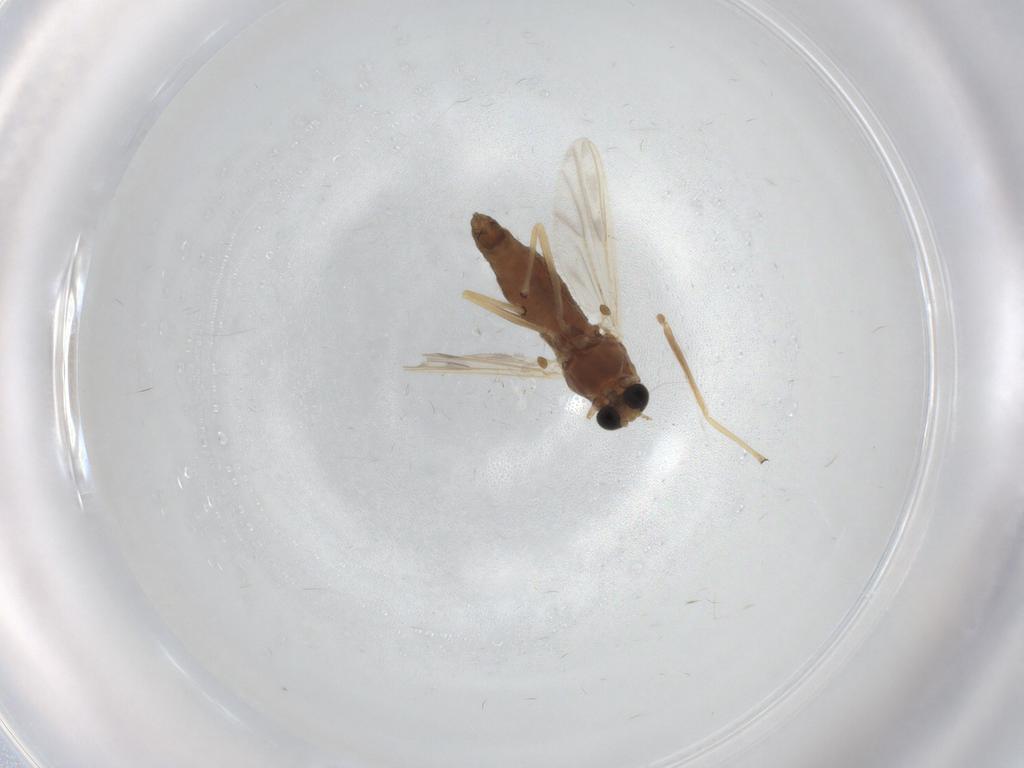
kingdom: Animalia
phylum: Arthropoda
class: Insecta
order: Diptera
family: Chironomidae
